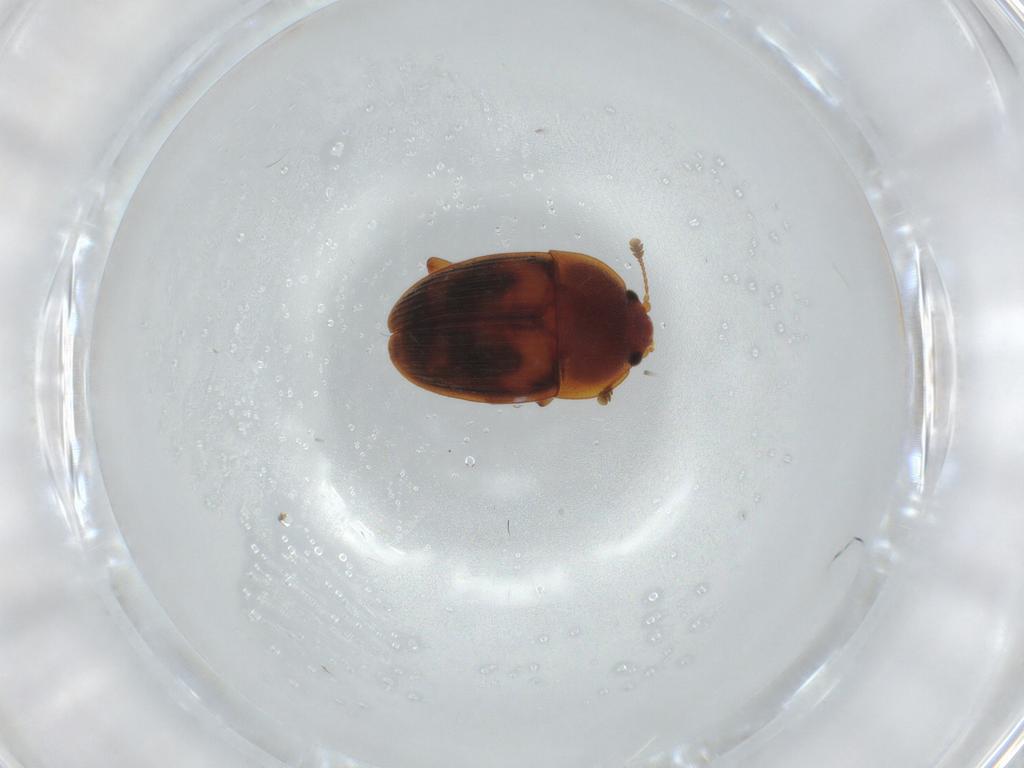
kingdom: Animalia
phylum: Arthropoda
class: Insecta
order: Coleoptera
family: Nitidulidae
